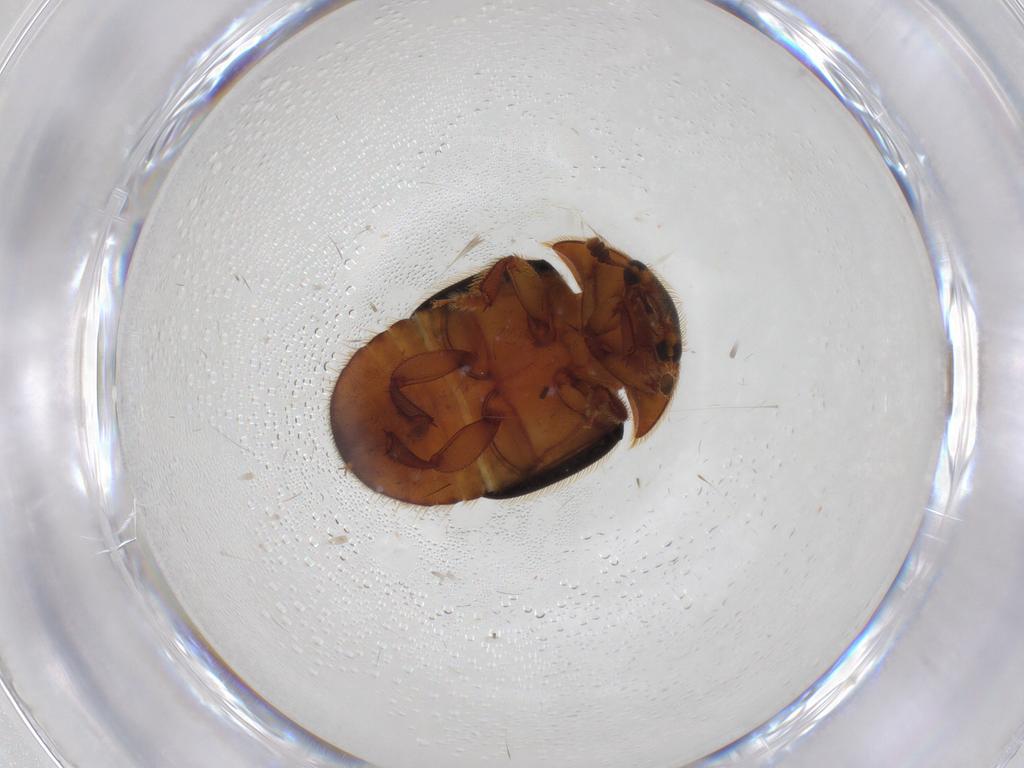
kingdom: Animalia
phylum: Arthropoda
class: Insecta
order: Coleoptera
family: Nitidulidae
